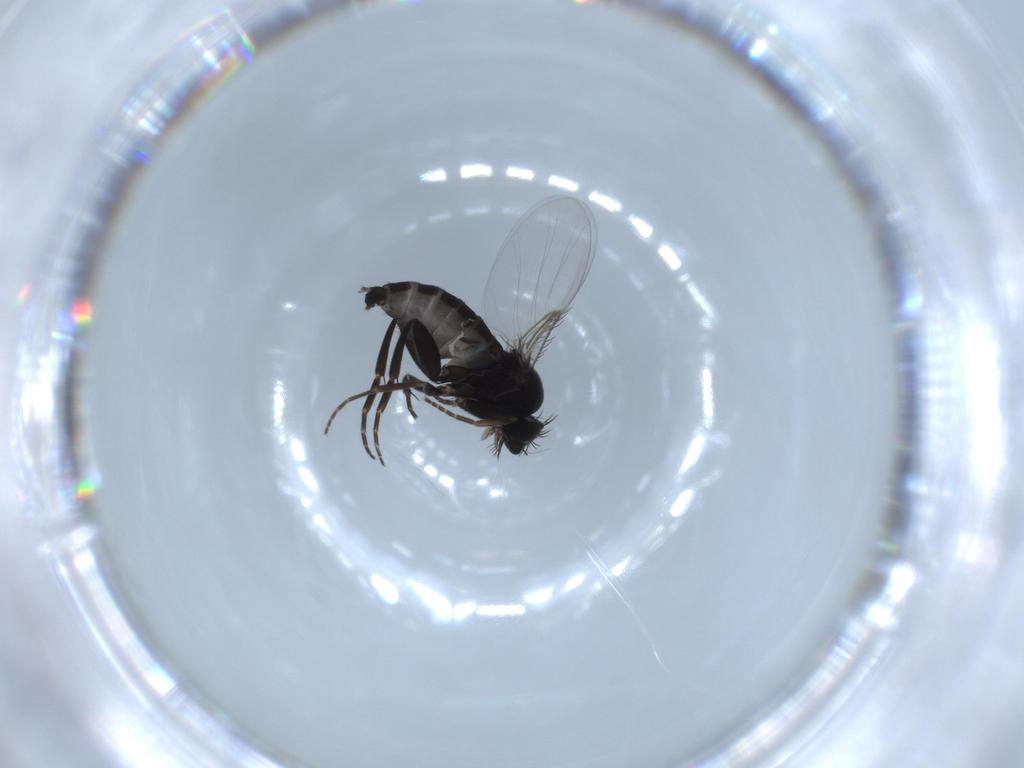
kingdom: Animalia
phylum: Arthropoda
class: Insecta
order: Diptera
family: Phoridae
